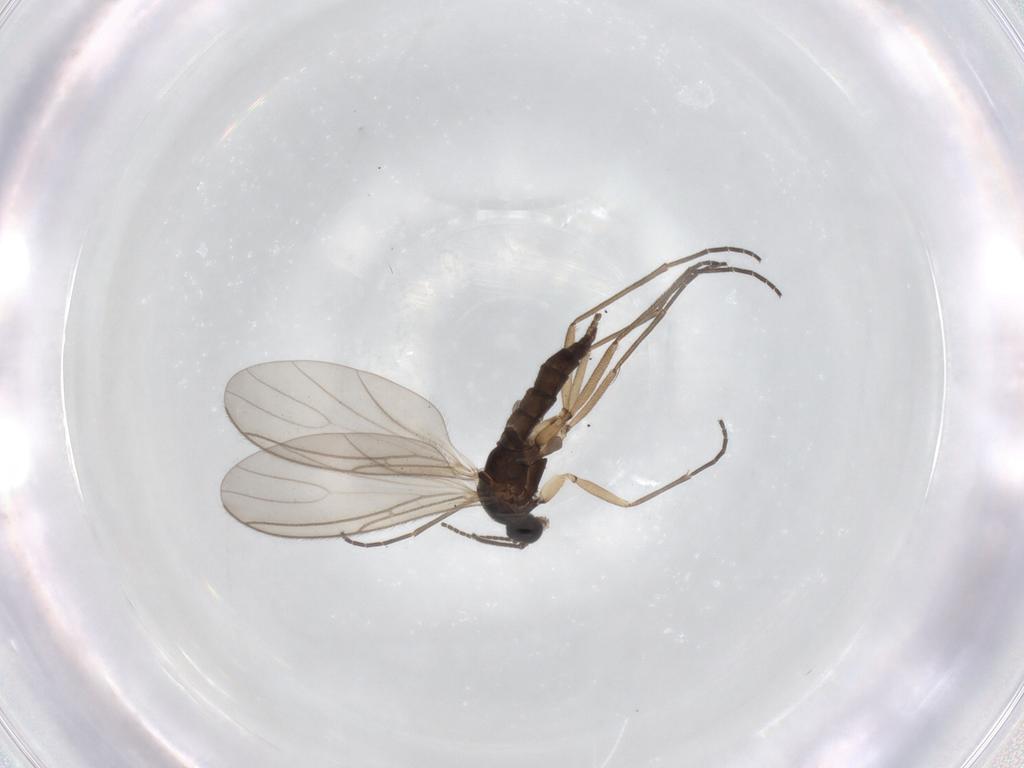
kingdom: Animalia
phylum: Arthropoda
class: Insecta
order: Diptera
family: Sciaridae
